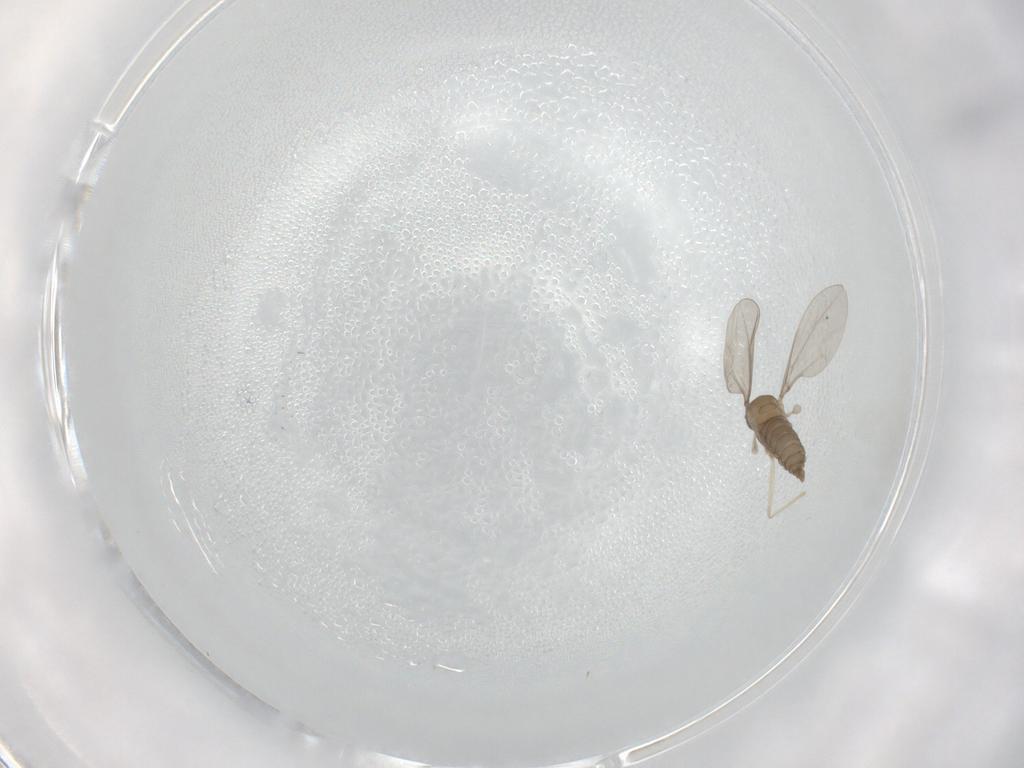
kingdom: Animalia
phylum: Arthropoda
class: Insecta
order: Diptera
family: Cecidomyiidae
